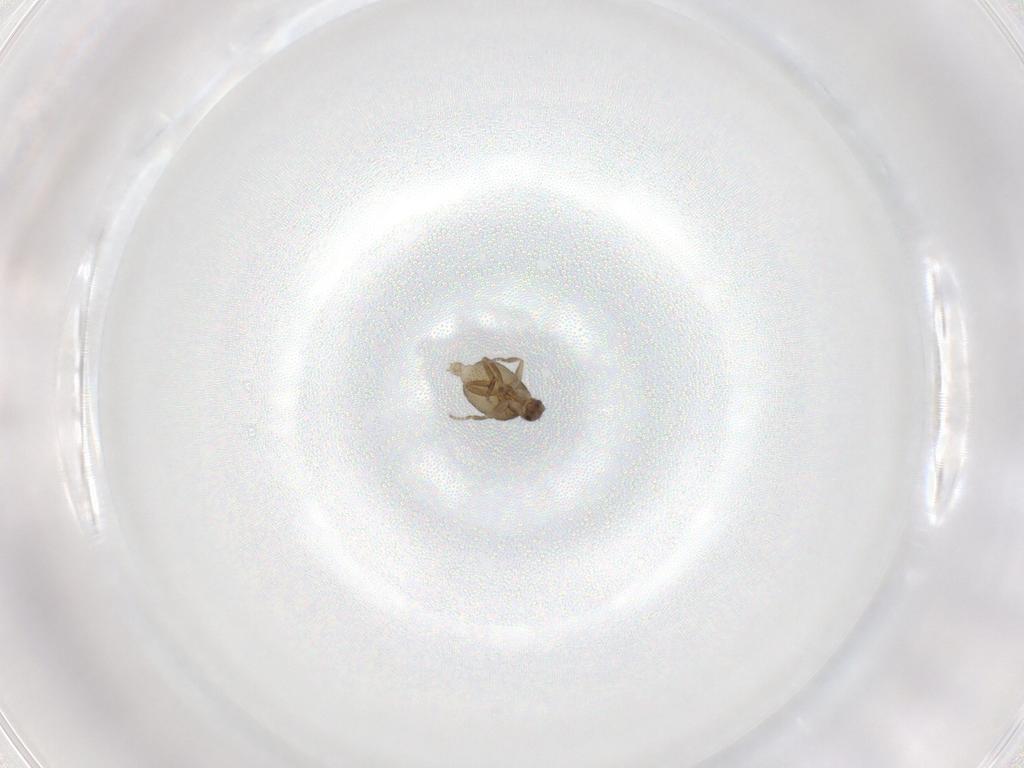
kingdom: Animalia
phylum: Arthropoda
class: Insecta
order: Diptera
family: Phoridae
